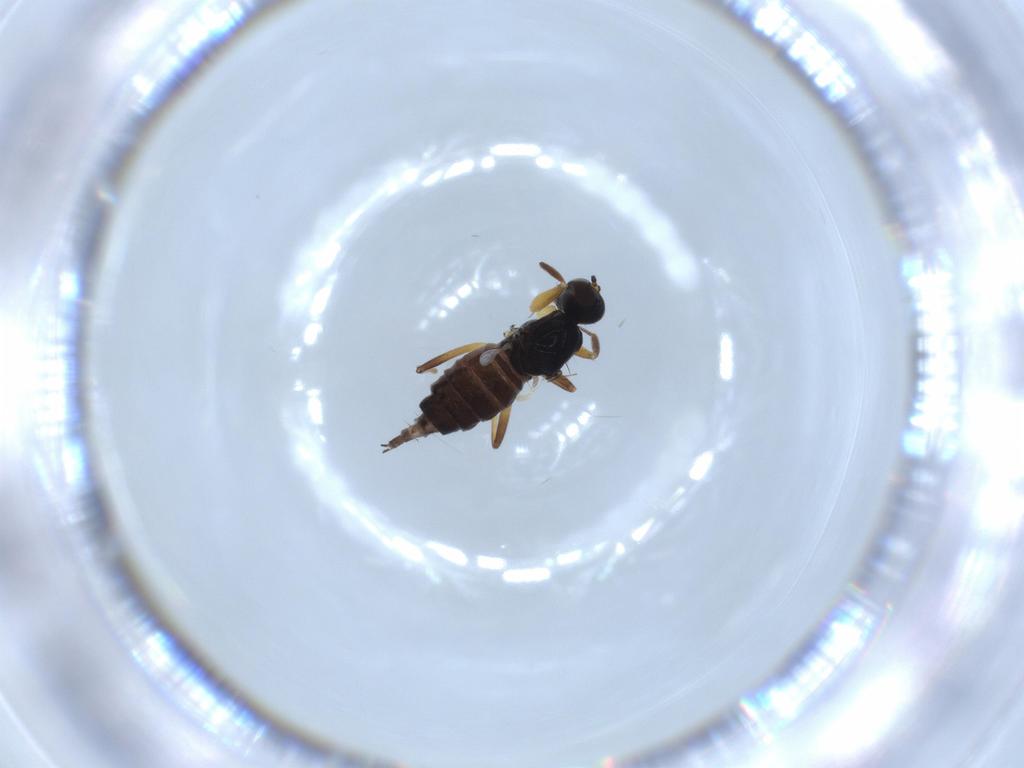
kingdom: Animalia
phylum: Arthropoda
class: Insecta
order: Diptera
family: Hybotidae
